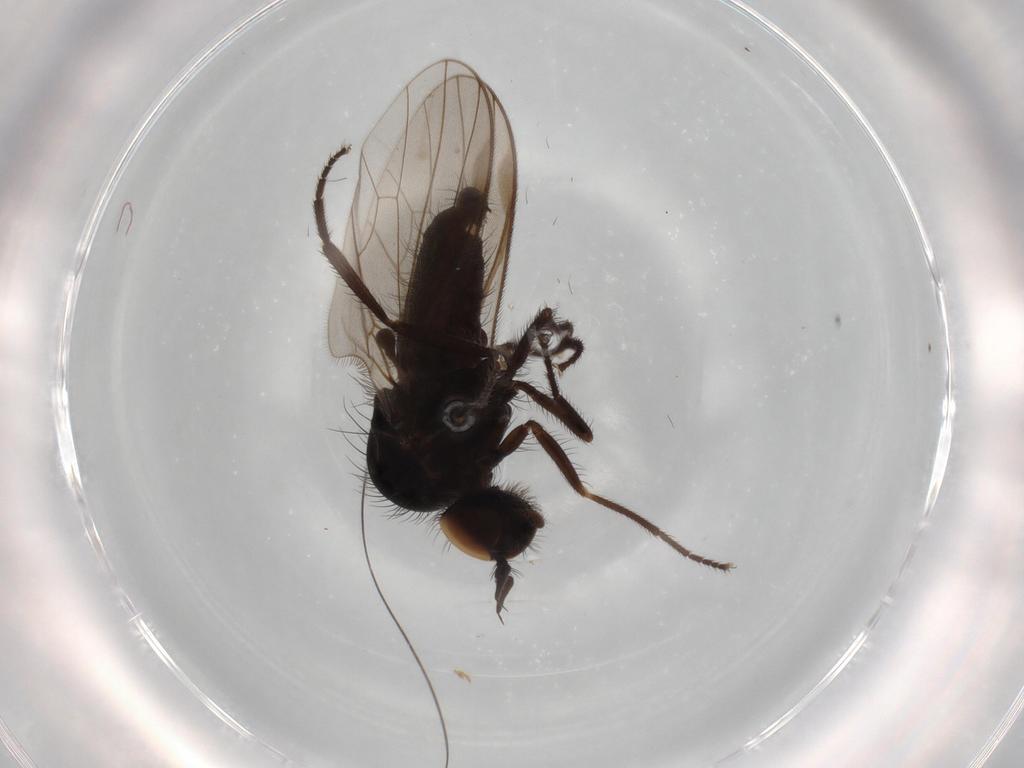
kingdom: Animalia
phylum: Arthropoda
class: Insecta
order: Diptera
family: Dolichopodidae
